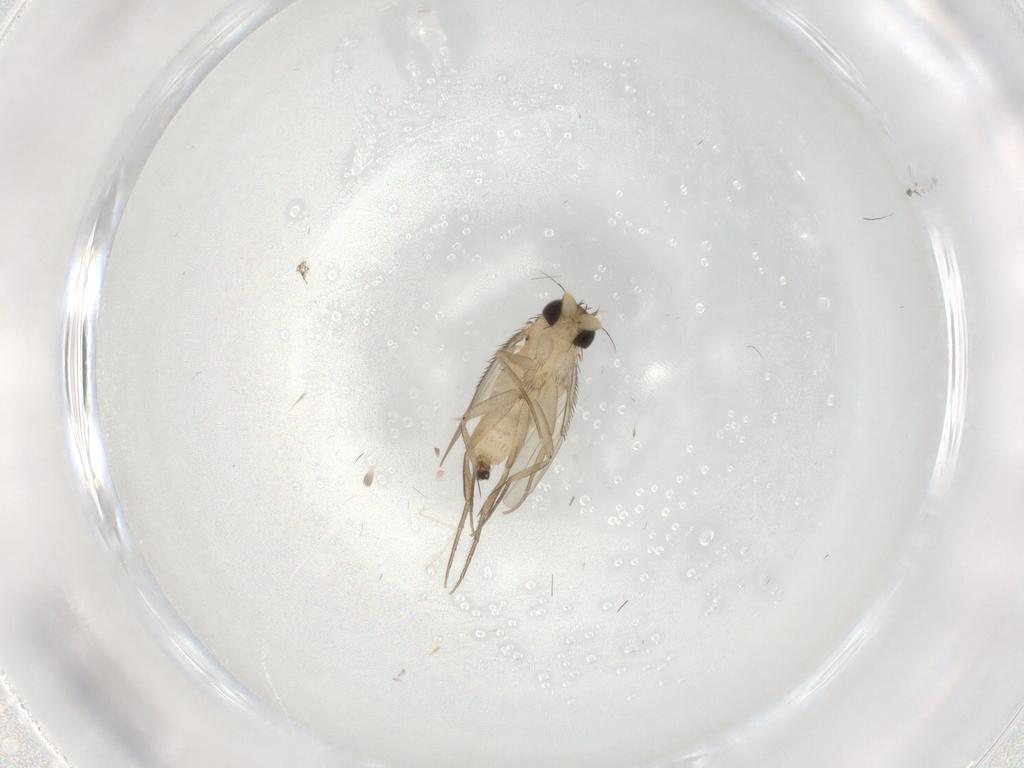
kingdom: Animalia
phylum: Arthropoda
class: Insecta
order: Diptera
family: Phoridae
